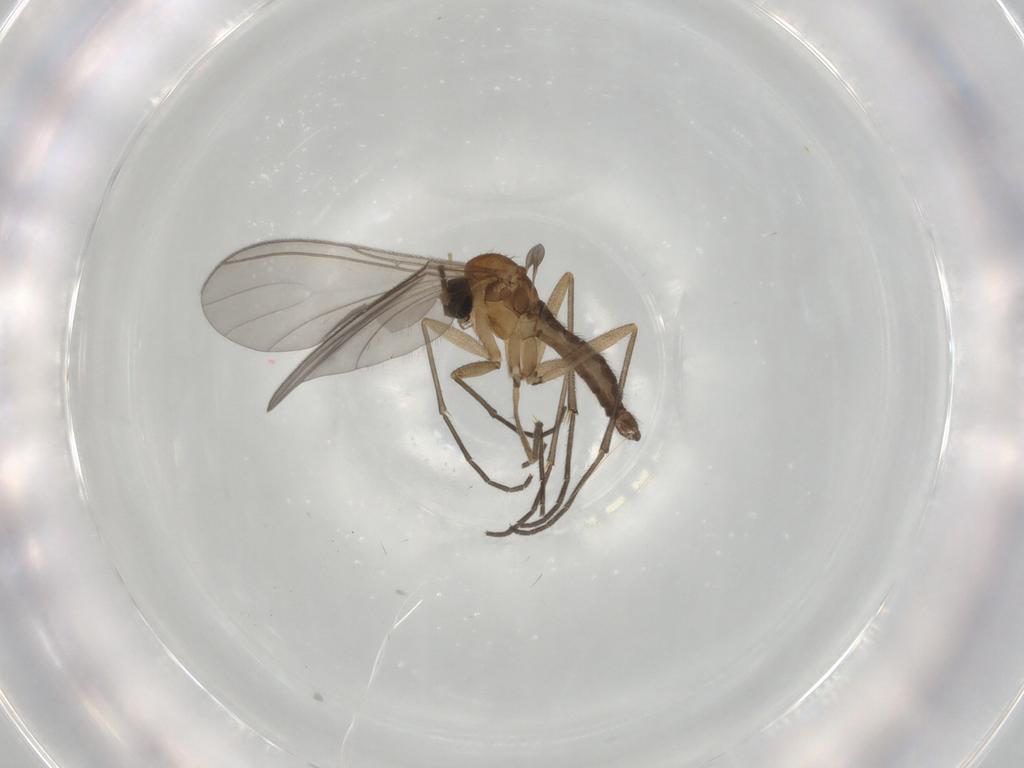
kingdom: Animalia
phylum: Arthropoda
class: Insecta
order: Diptera
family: Sciaridae
